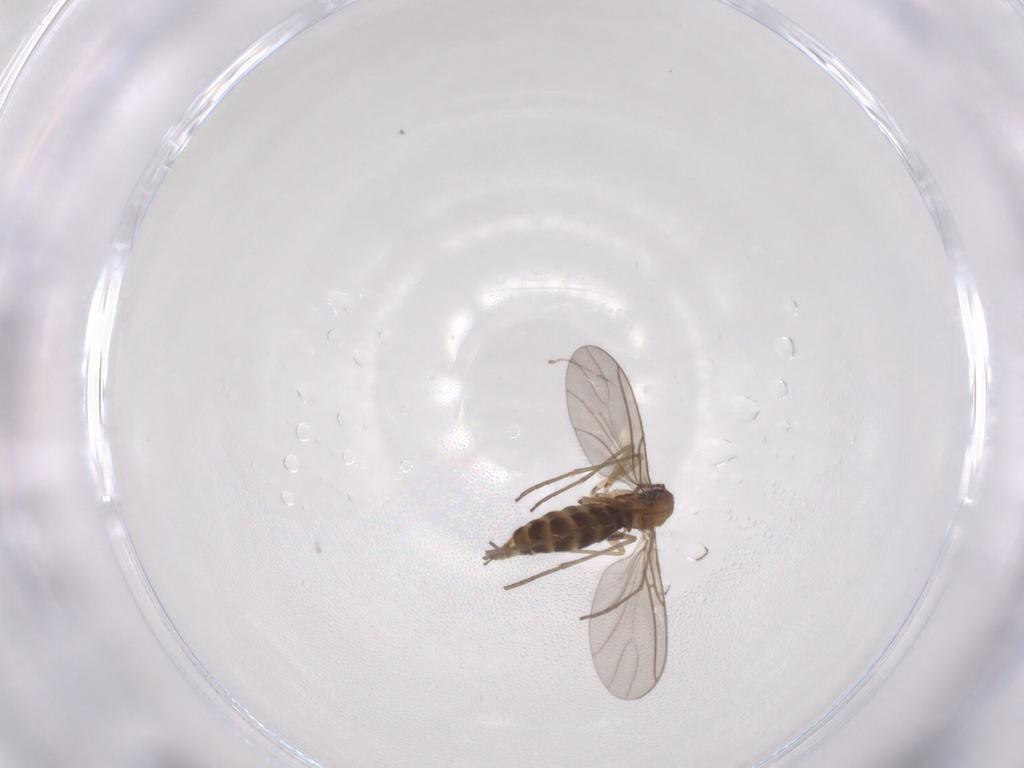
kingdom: Animalia
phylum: Arthropoda
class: Insecta
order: Diptera
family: Sciaridae
